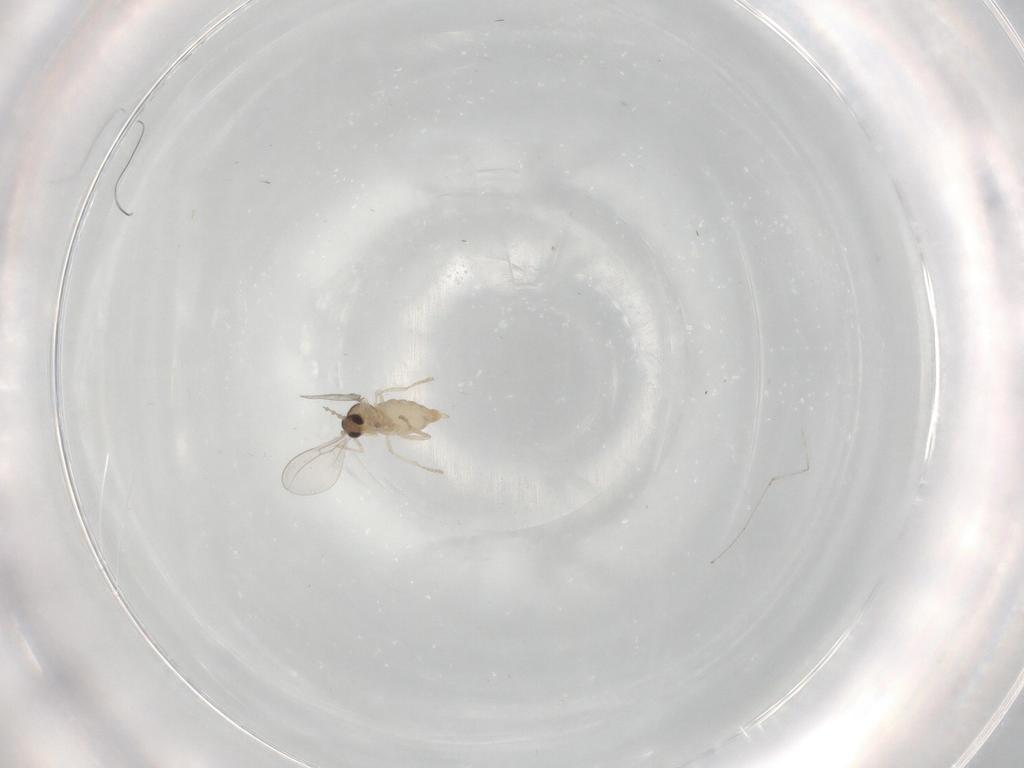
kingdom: Animalia
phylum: Arthropoda
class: Insecta
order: Diptera
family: Cecidomyiidae
